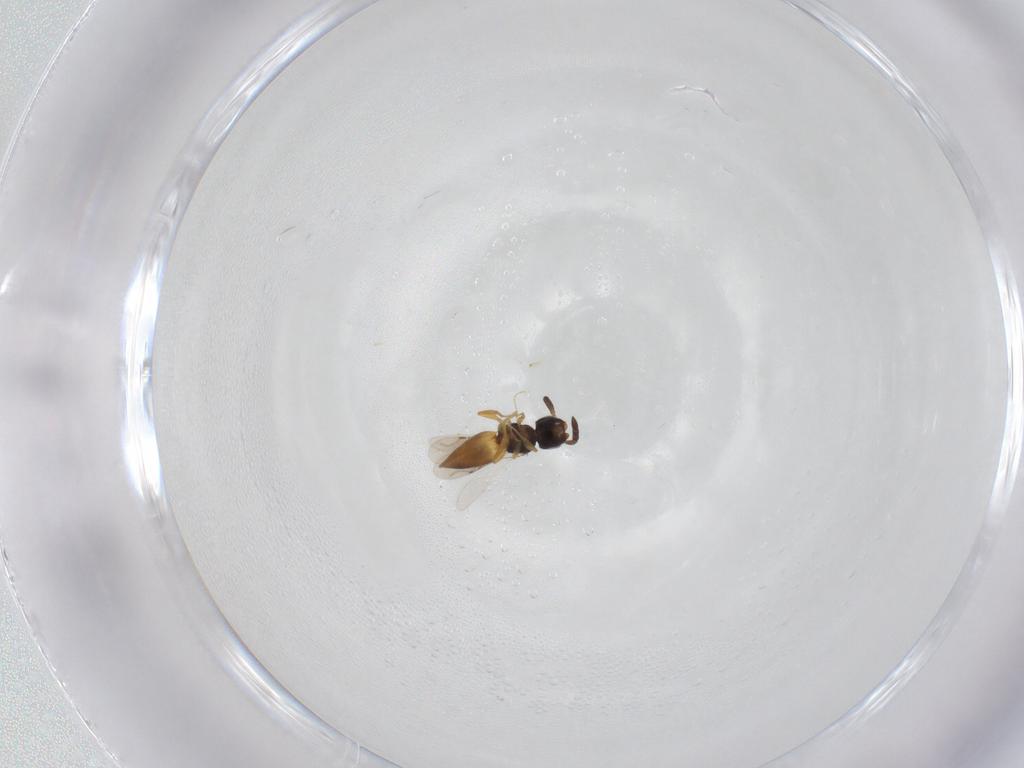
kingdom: Animalia
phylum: Arthropoda
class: Insecta
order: Hymenoptera
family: Ceraphronidae
